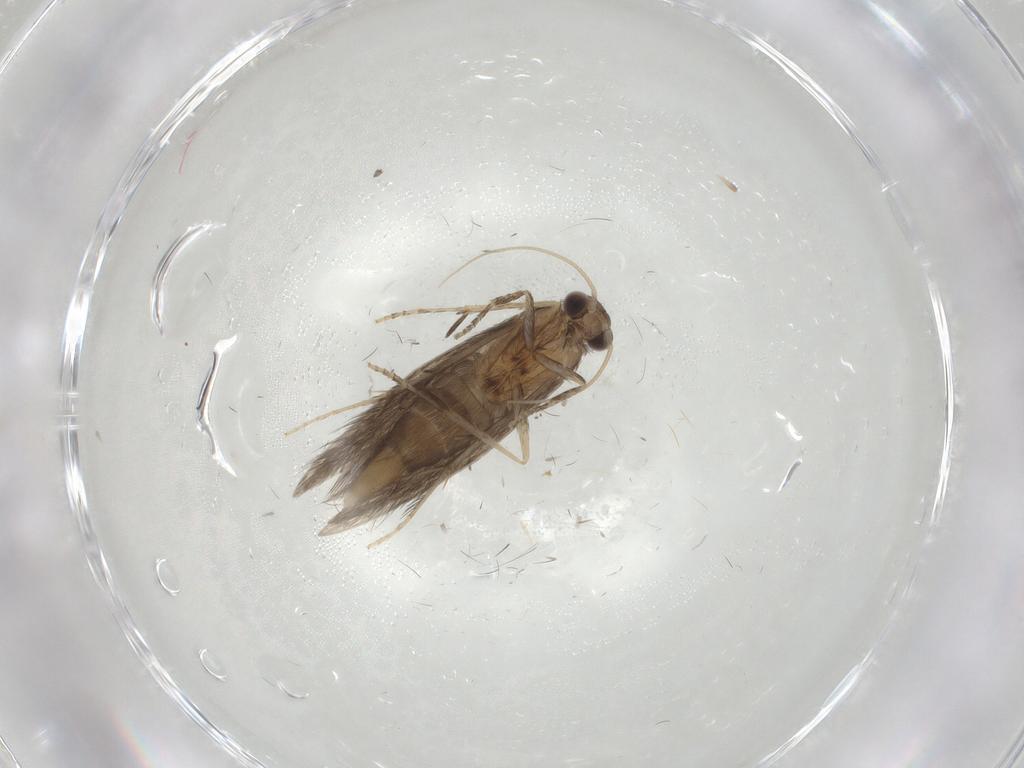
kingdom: Animalia
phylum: Arthropoda
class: Insecta
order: Trichoptera
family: Hydroptilidae
